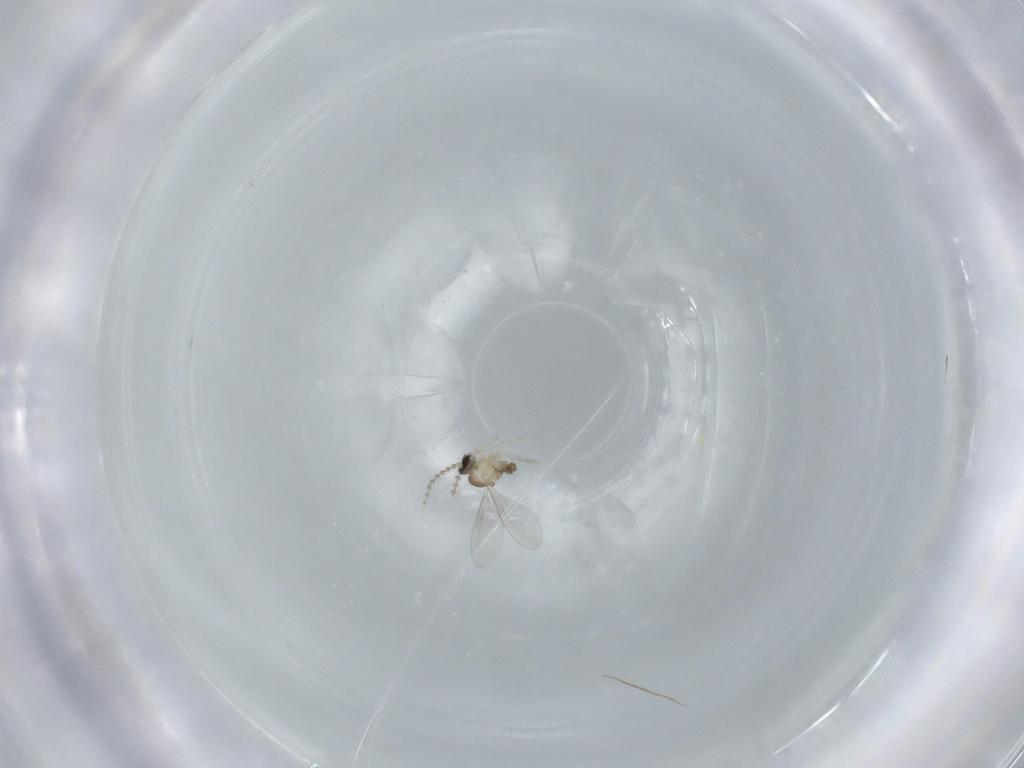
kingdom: Animalia
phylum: Arthropoda
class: Insecta
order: Diptera
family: Cecidomyiidae
